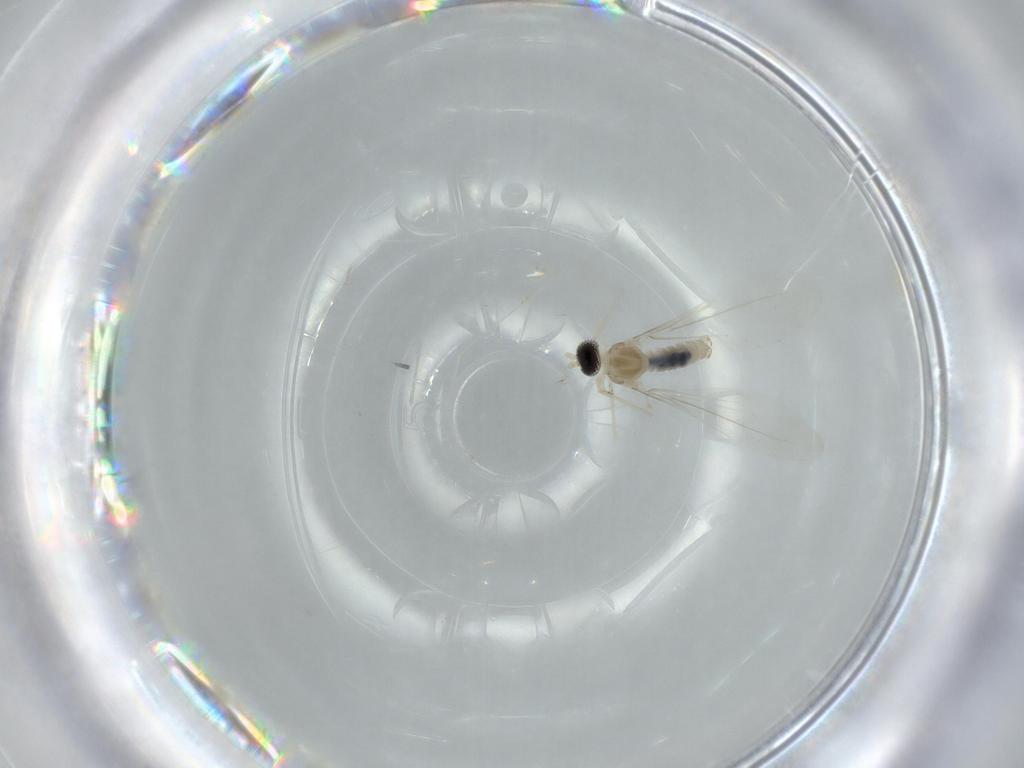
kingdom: Animalia
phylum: Arthropoda
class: Insecta
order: Diptera
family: Cecidomyiidae
